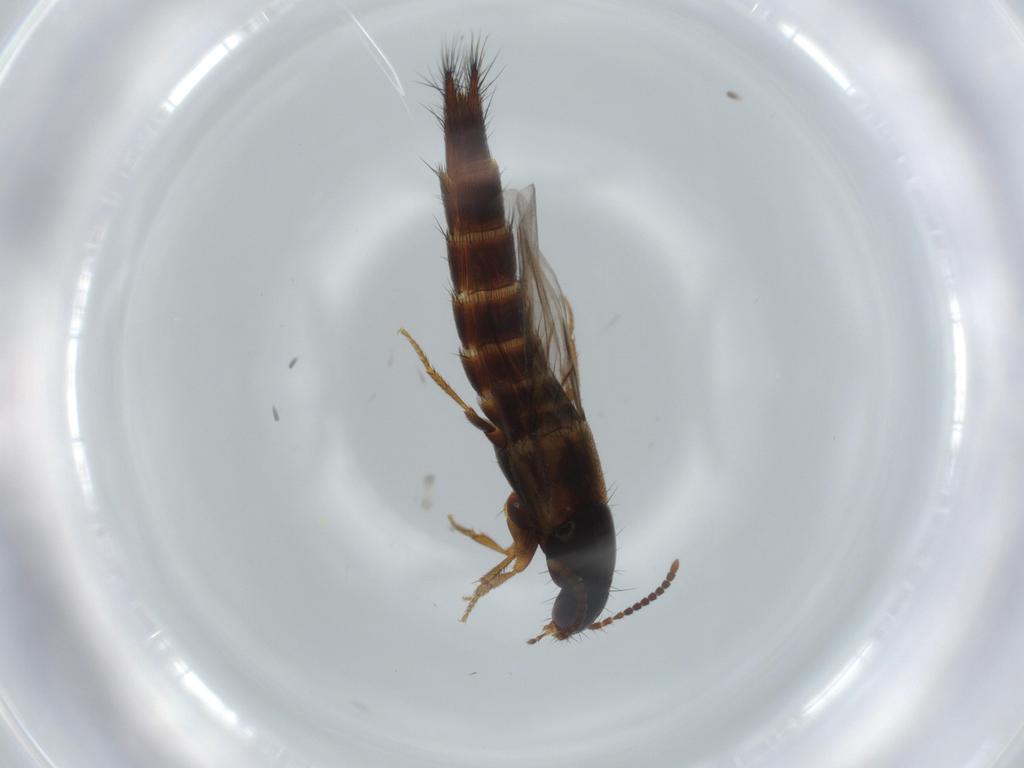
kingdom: Animalia
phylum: Arthropoda
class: Insecta
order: Coleoptera
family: Staphylinidae
